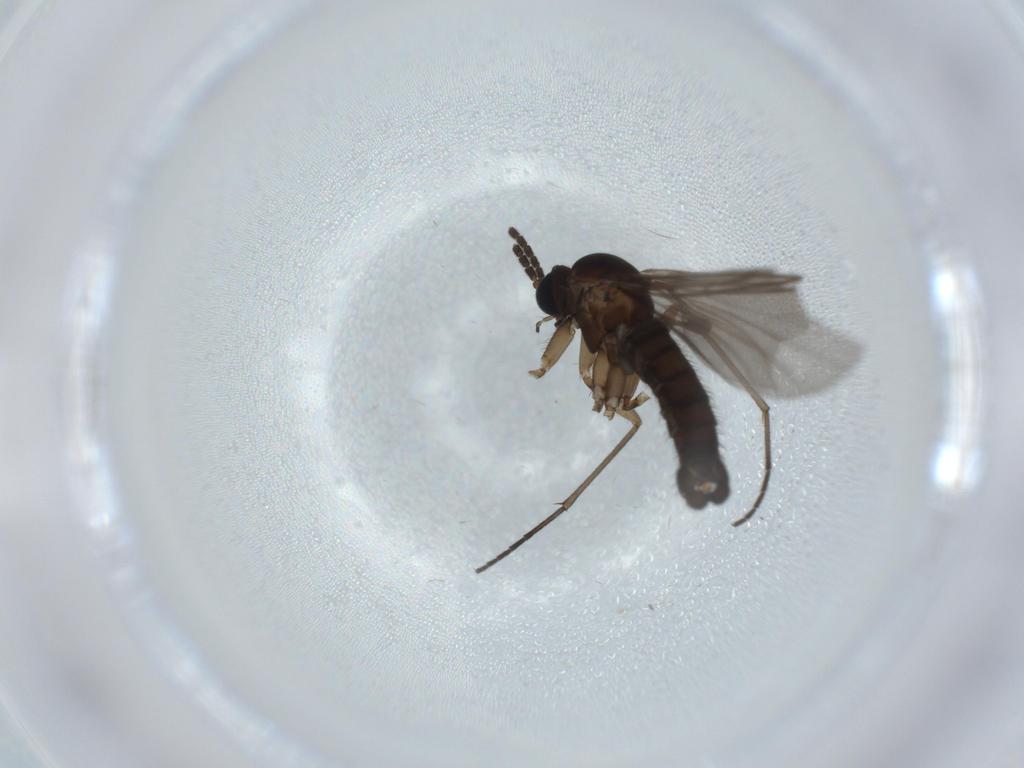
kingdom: Animalia
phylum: Arthropoda
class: Insecta
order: Diptera
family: Sciaridae
